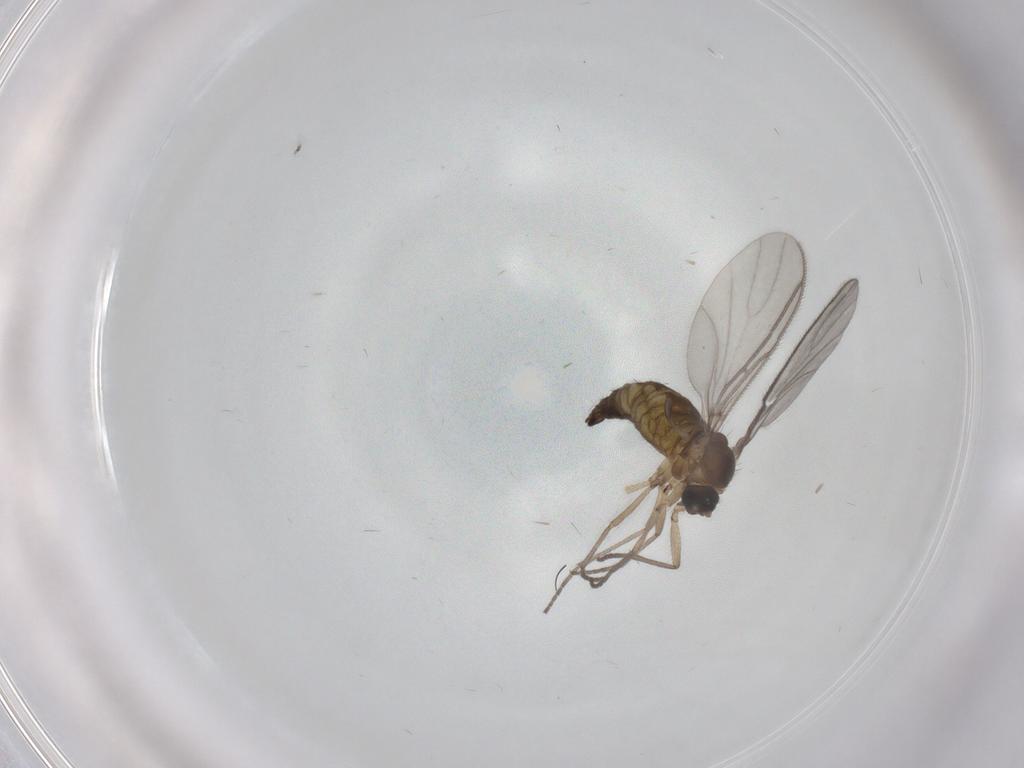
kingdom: Animalia
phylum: Arthropoda
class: Insecta
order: Diptera
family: Sciaridae
